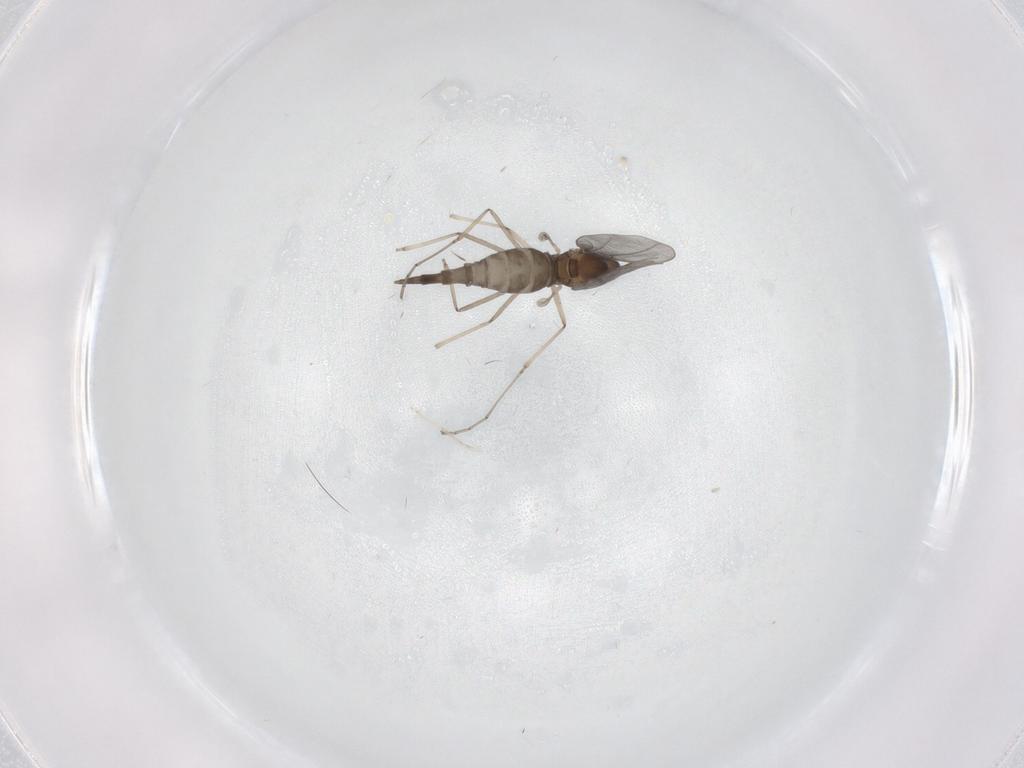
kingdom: Animalia
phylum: Arthropoda
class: Insecta
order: Diptera
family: Cecidomyiidae
